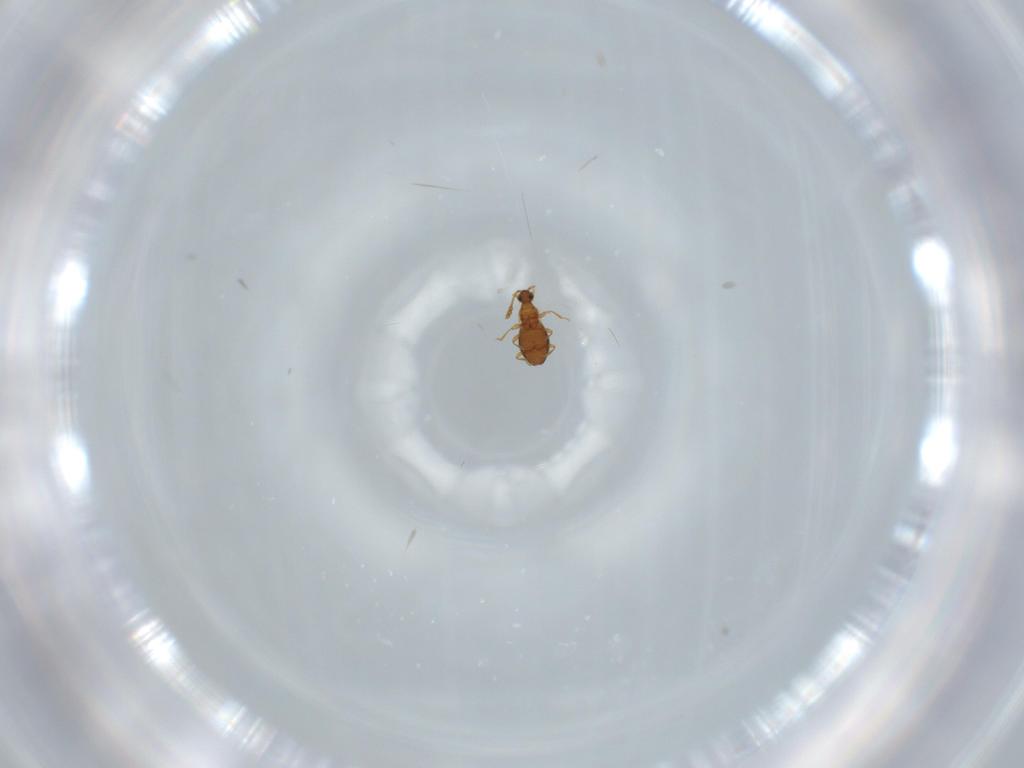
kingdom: Animalia
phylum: Arthropoda
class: Insecta
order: Coleoptera
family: Staphylinidae
